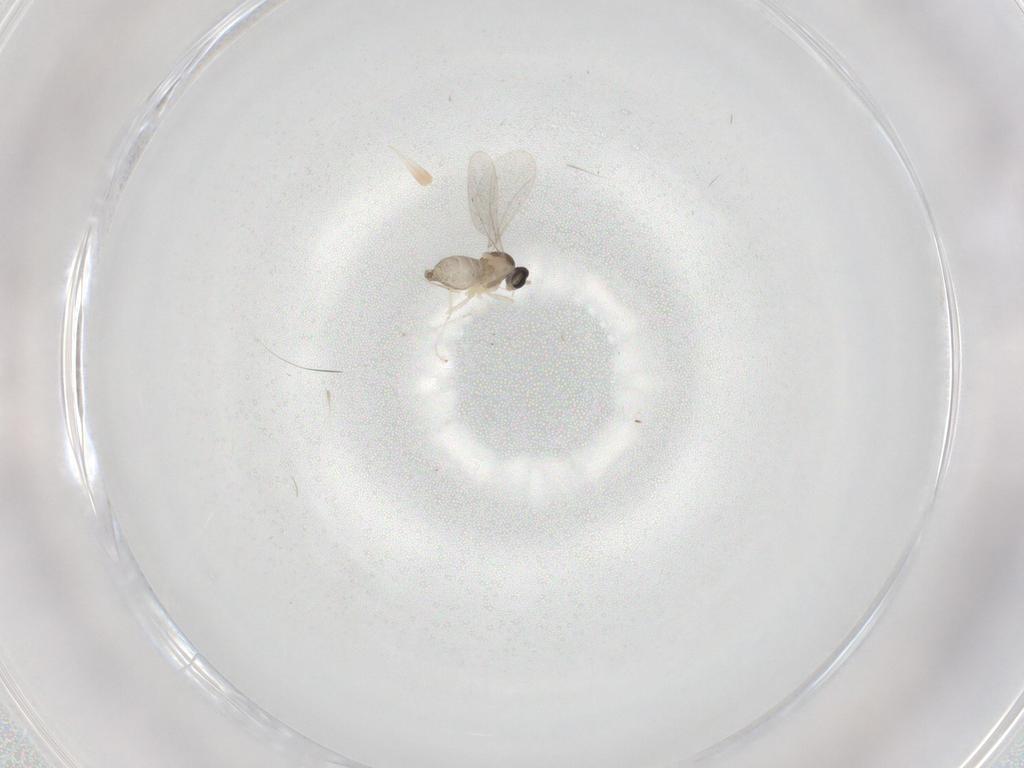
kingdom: Animalia
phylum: Arthropoda
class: Insecta
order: Diptera
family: Cecidomyiidae
